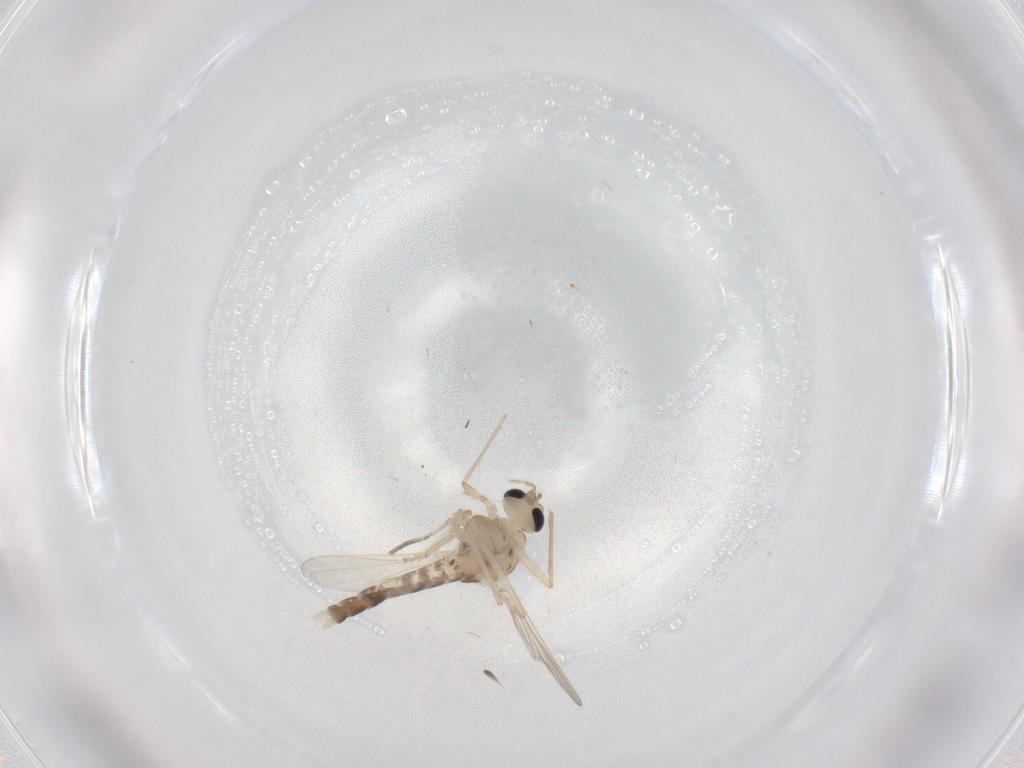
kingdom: Animalia
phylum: Arthropoda
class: Insecta
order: Diptera
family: Chironomidae
